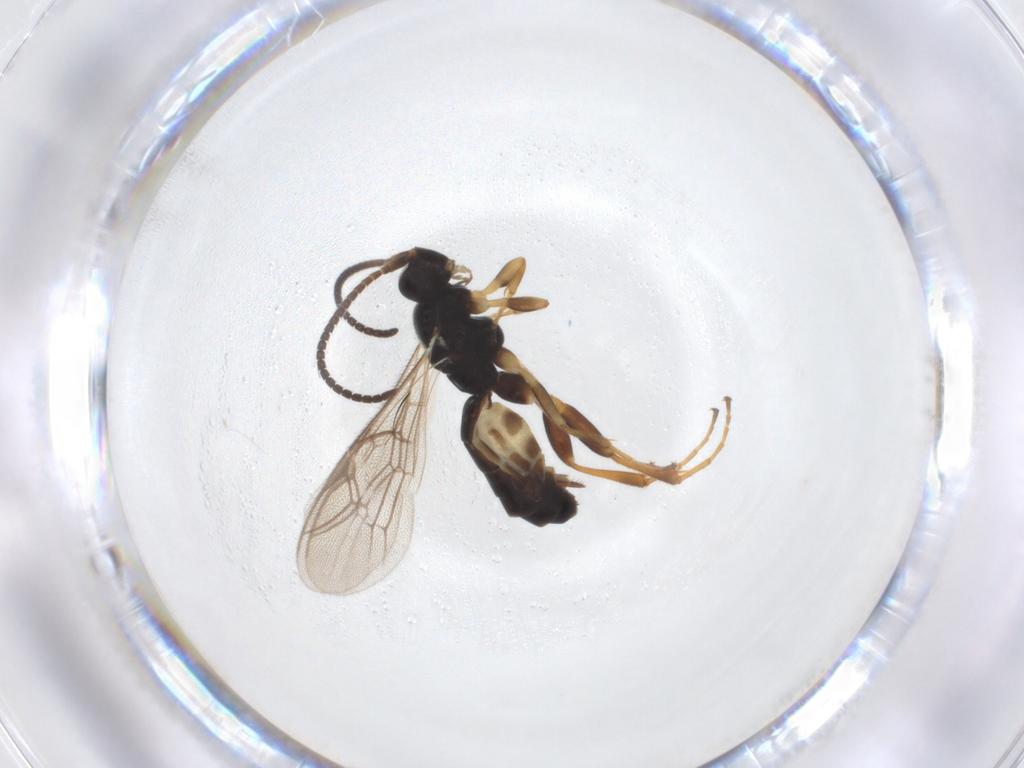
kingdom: Animalia
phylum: Arthropoda
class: Insecta
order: Hymenoptera
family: Ichneumonidae
